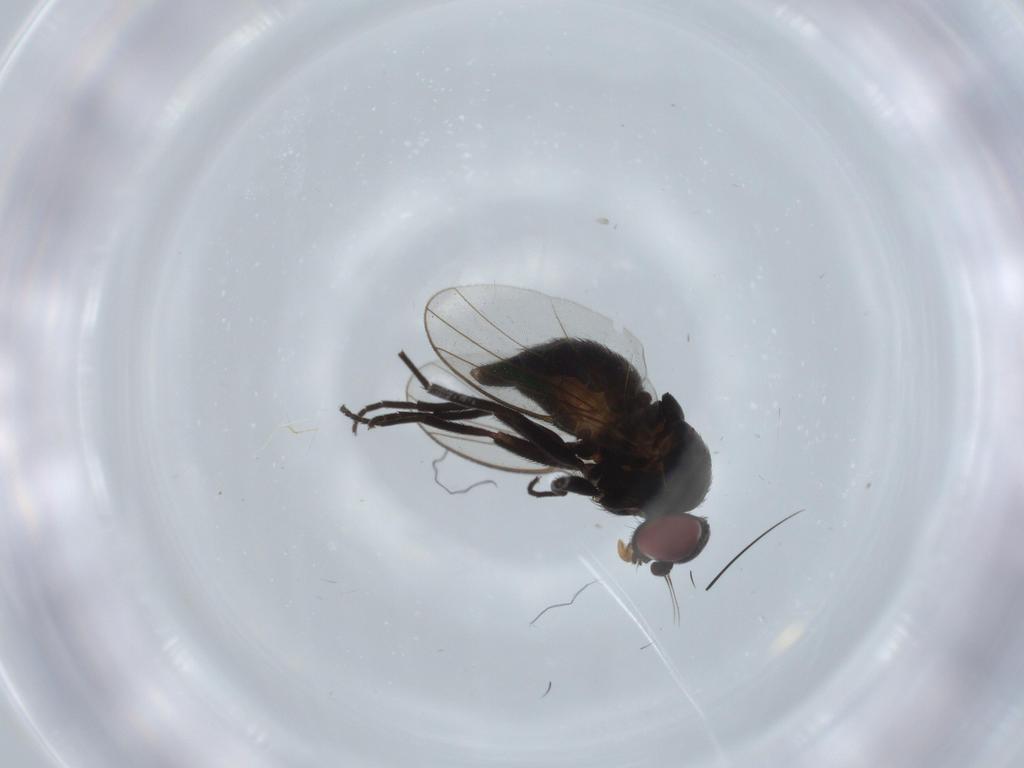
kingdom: Animalia
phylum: Arthropoda
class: Insecta
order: Diptera
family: Agromyzidae
